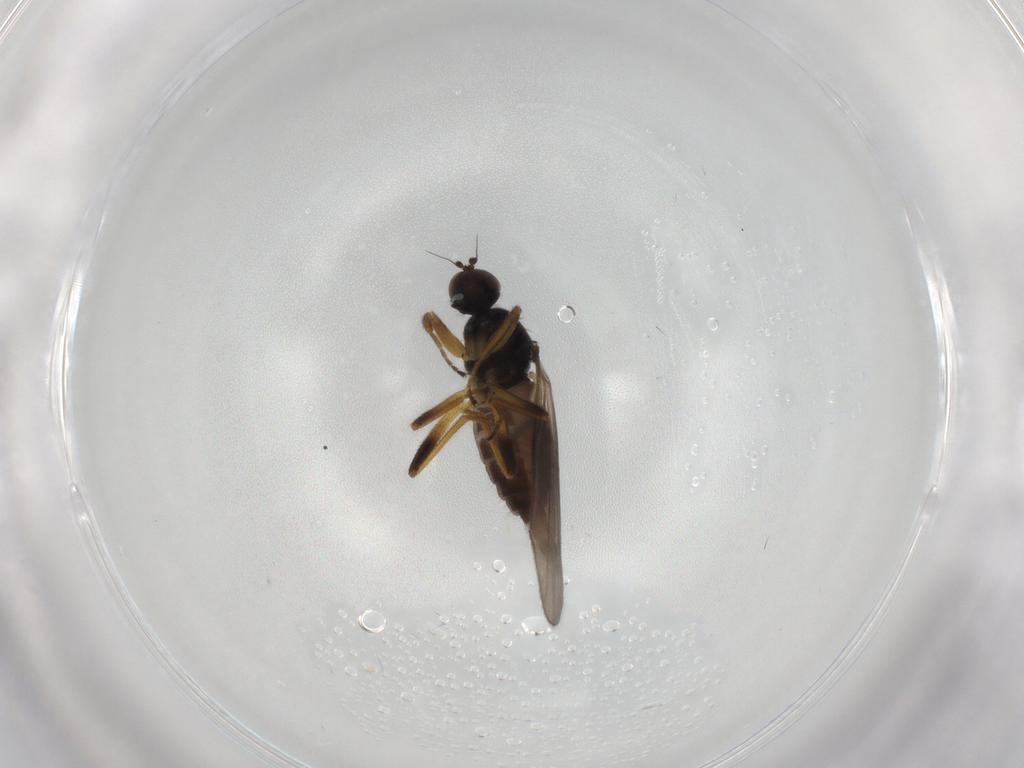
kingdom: Animalia
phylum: Arthropoda
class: Insecta
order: Diptera
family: Hybotidae
